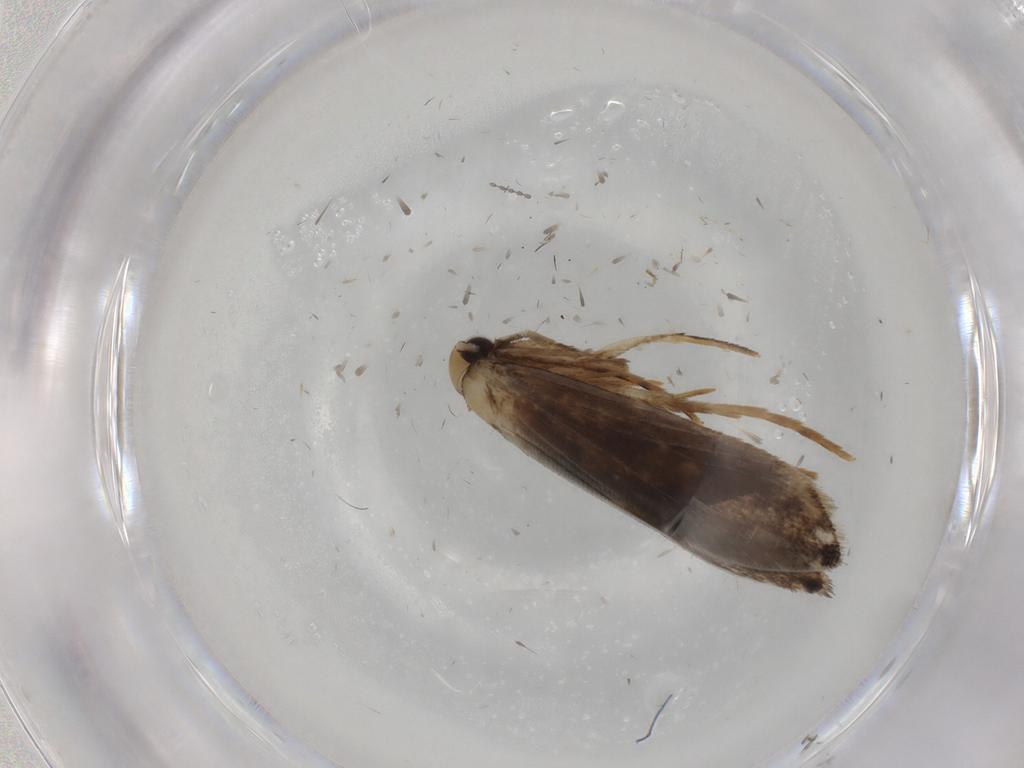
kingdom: Animalia
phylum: Arthropoda
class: Insecta
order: Lepidoptera
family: Tineidae
